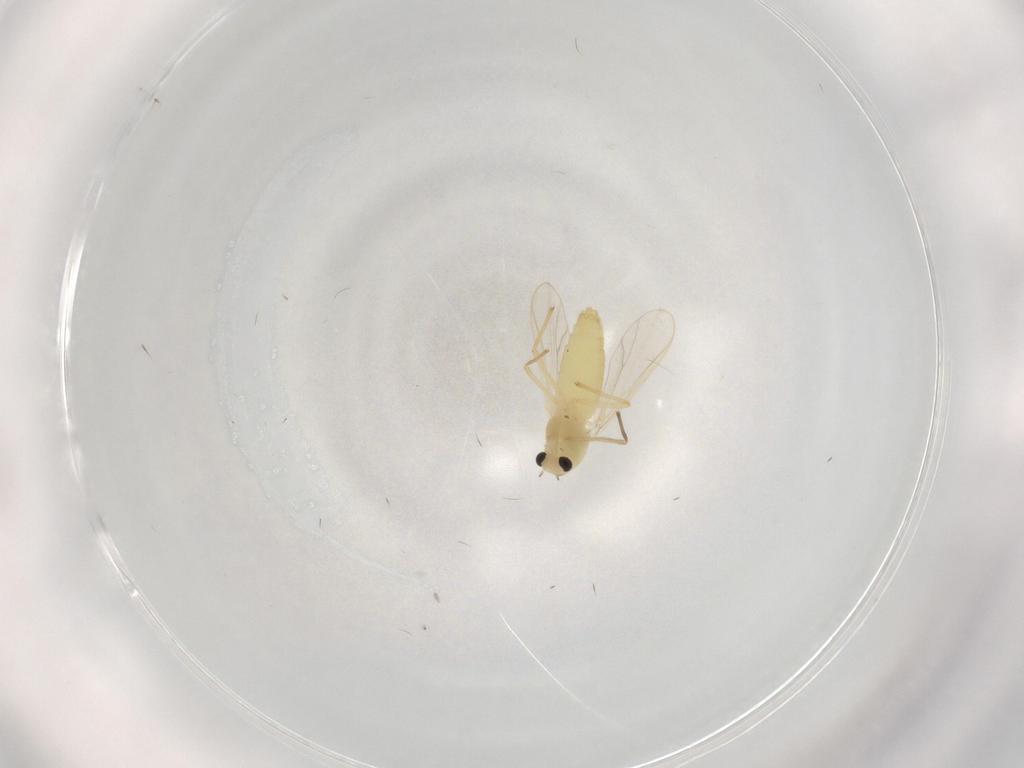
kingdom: Animalia
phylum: Arthropoda
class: Insecta
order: Diptera
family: Chironomidae
